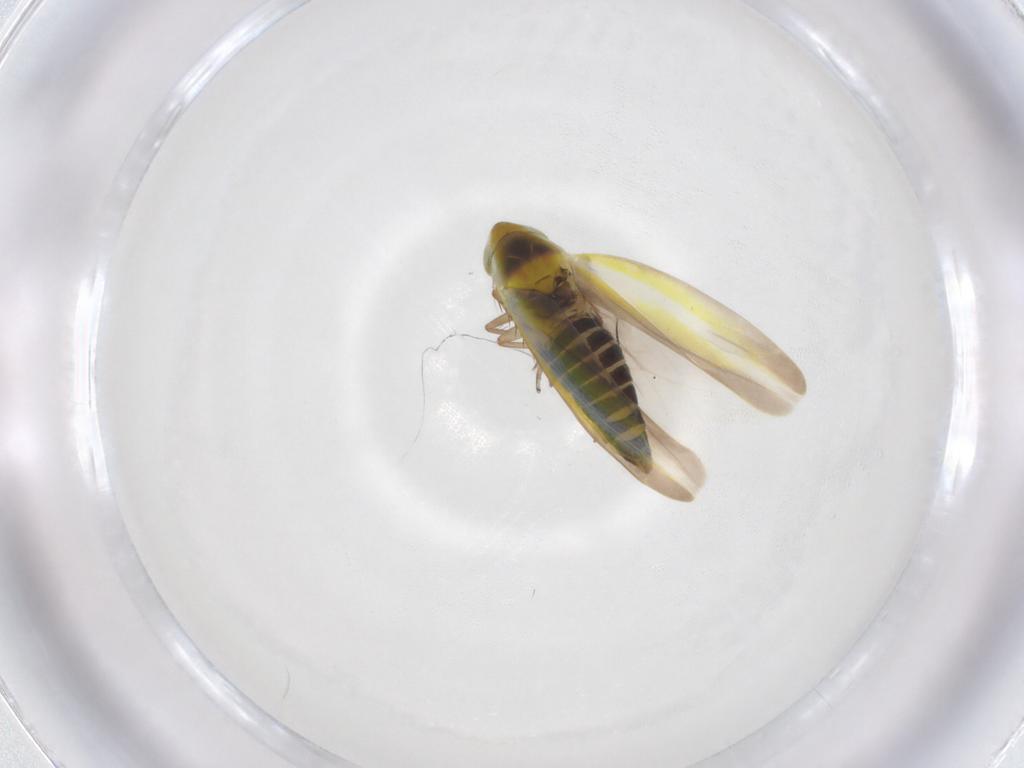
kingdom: Animalia
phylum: Arthropoda
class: Insecta
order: Hemiptera
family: Cicadellidae
